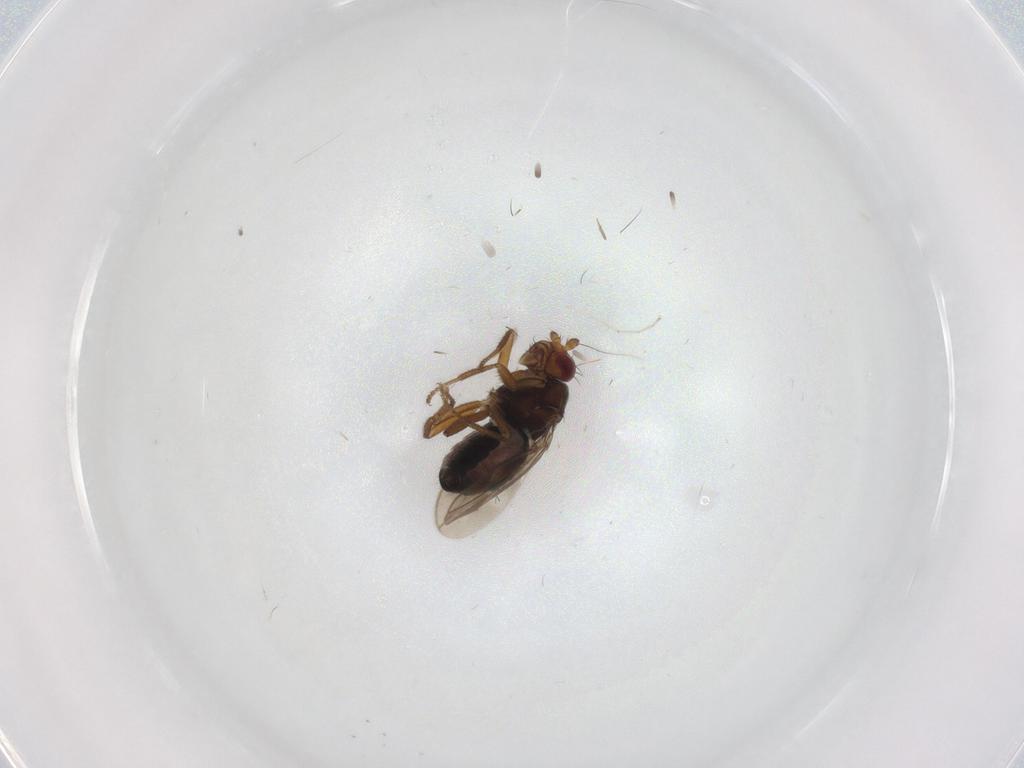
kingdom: Animalia
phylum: Arthropoda
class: Insecta
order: Diptera
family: Sphaeroceridae
